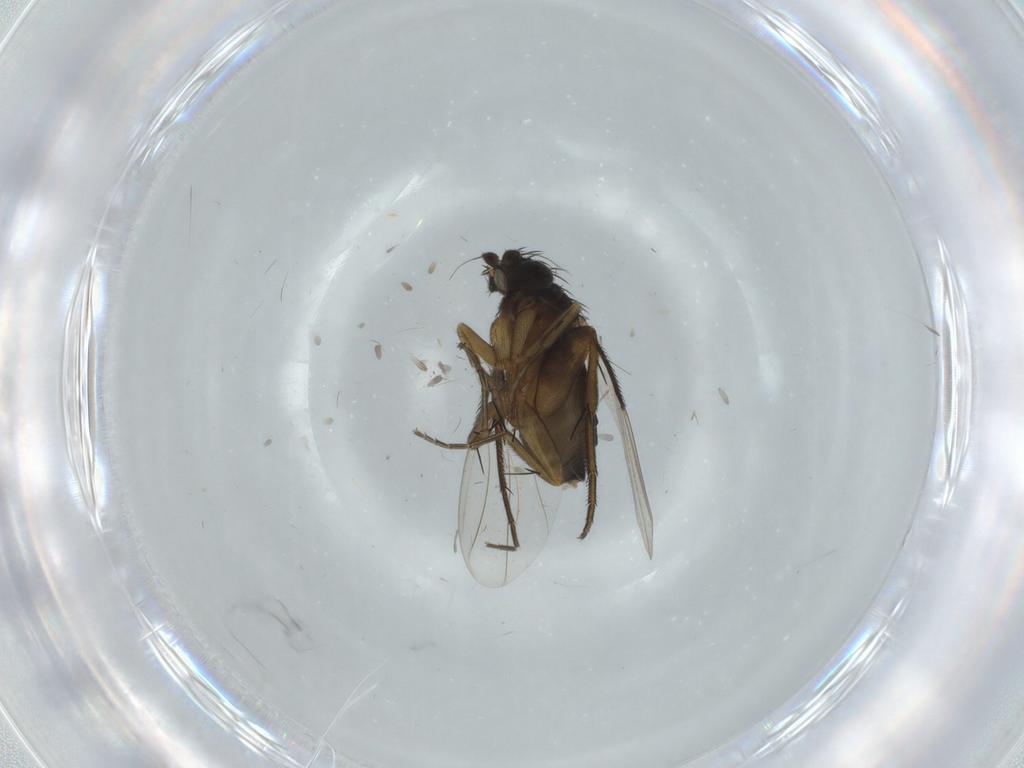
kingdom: Animalia
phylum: Arthropoda
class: Insecta
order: Diptera
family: Phoridae
